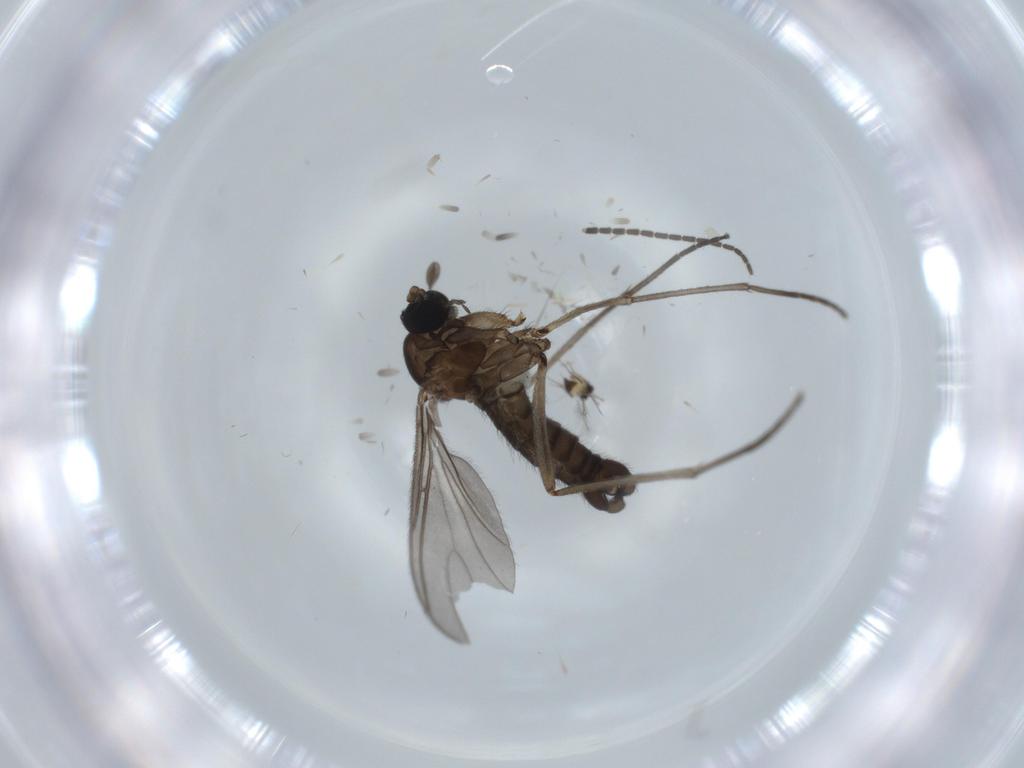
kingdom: Animalia
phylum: Arthropoda
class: Insecta
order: Diptera
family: Sciaridae
